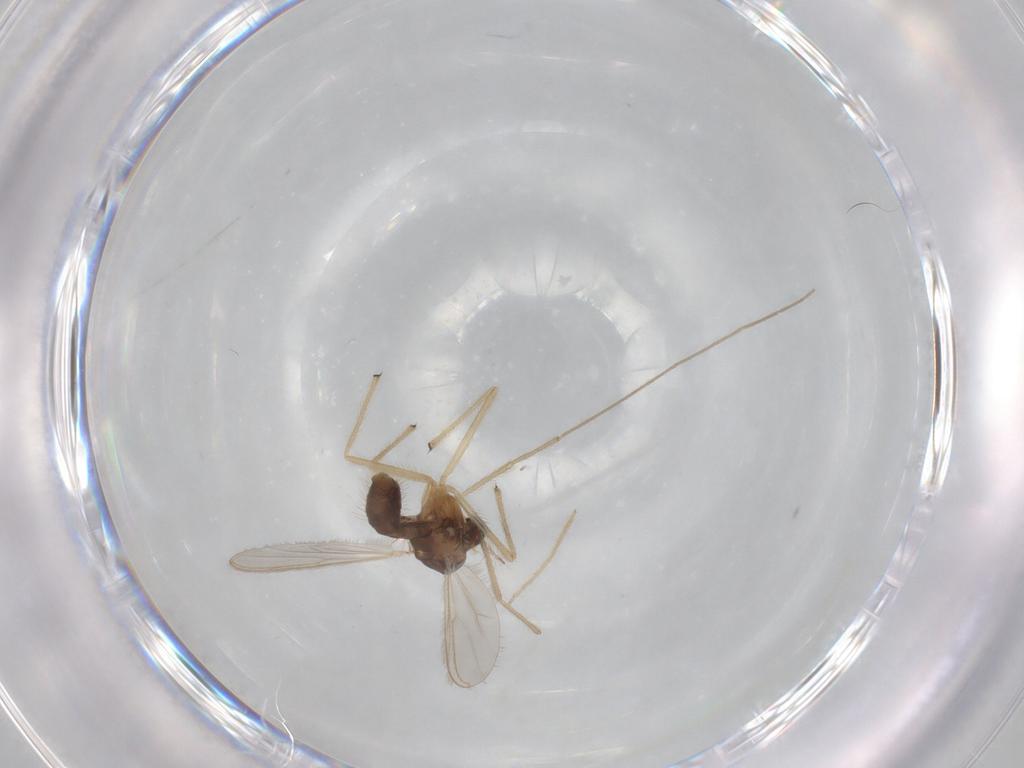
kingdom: Animalia
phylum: Arthropoda
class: Insecta
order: Diptera
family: Chironomidae
